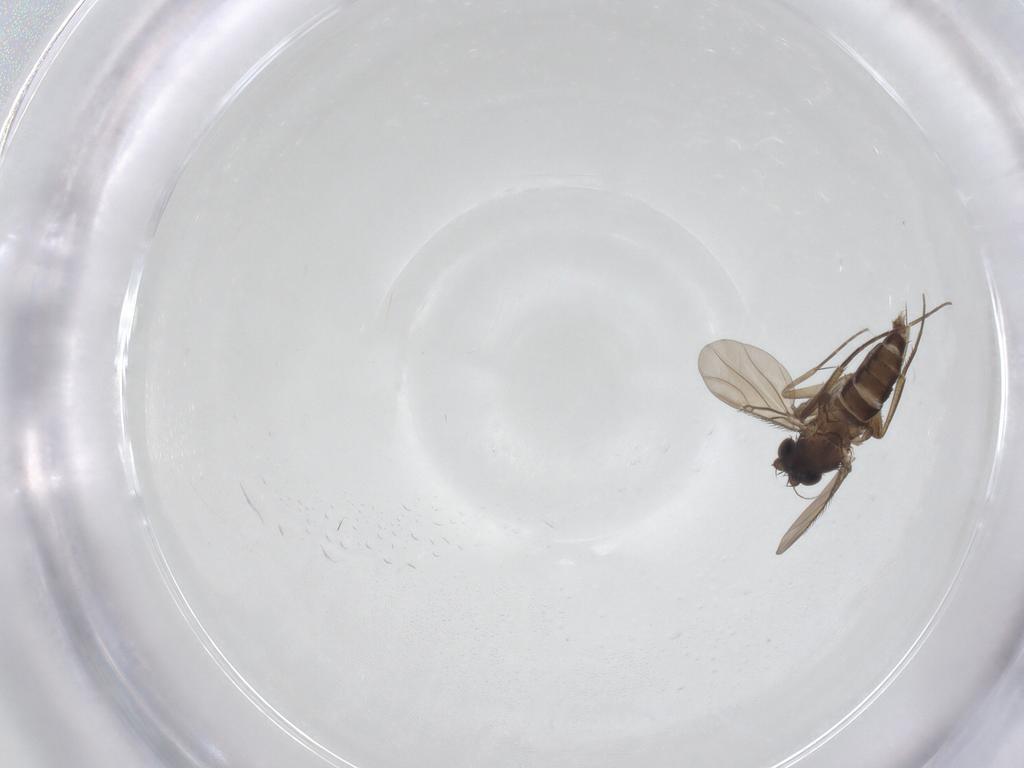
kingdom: Animalia
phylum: Arthropoda
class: Insecta
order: Diptera
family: Phoridae
